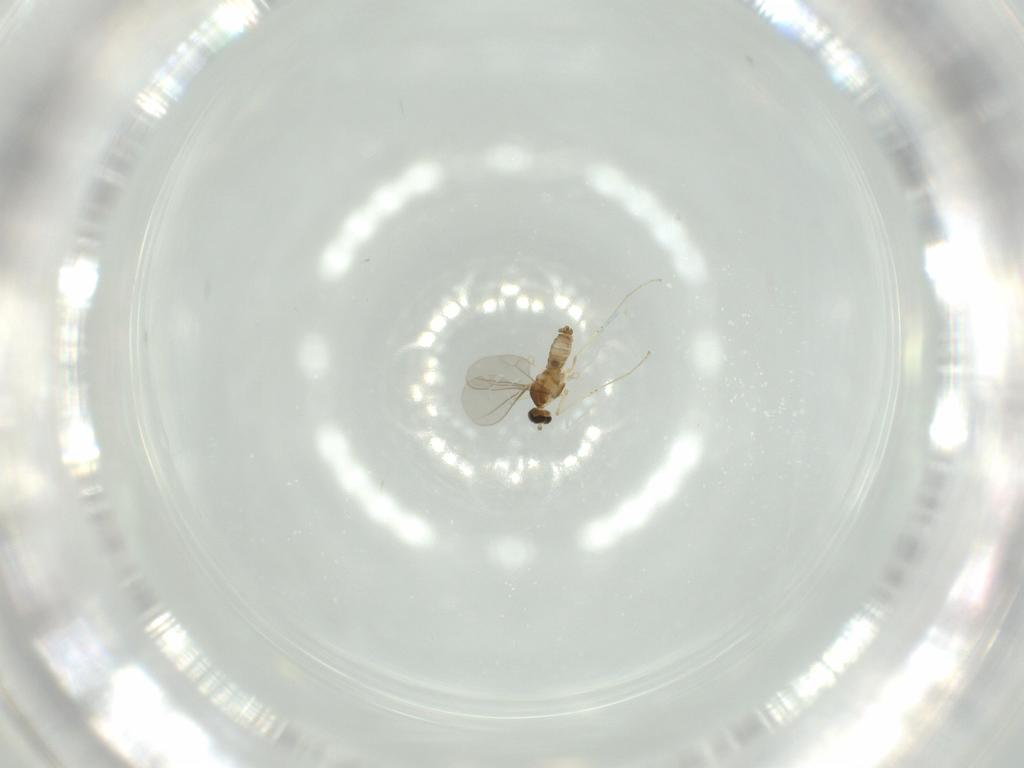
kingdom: Animalia
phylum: Arthropoda
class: Insecta
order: Diptera
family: Cecidomyiidae
